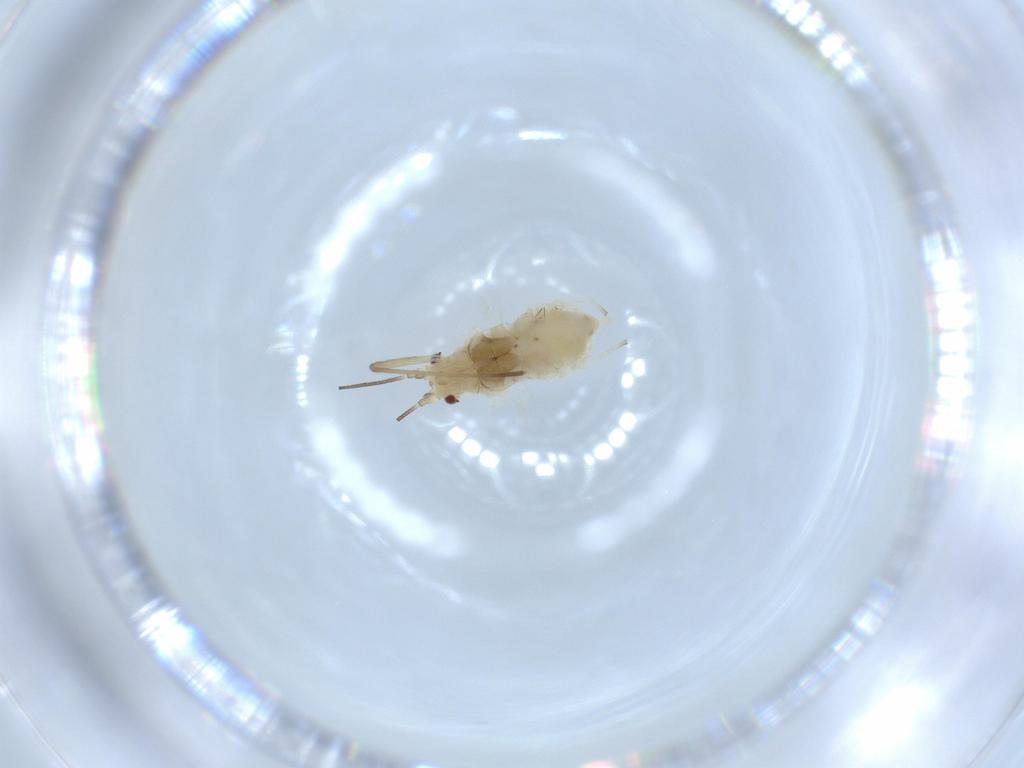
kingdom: Animalia
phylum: Arthropoda
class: Insecta
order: Hemiptera
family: Aphididae
